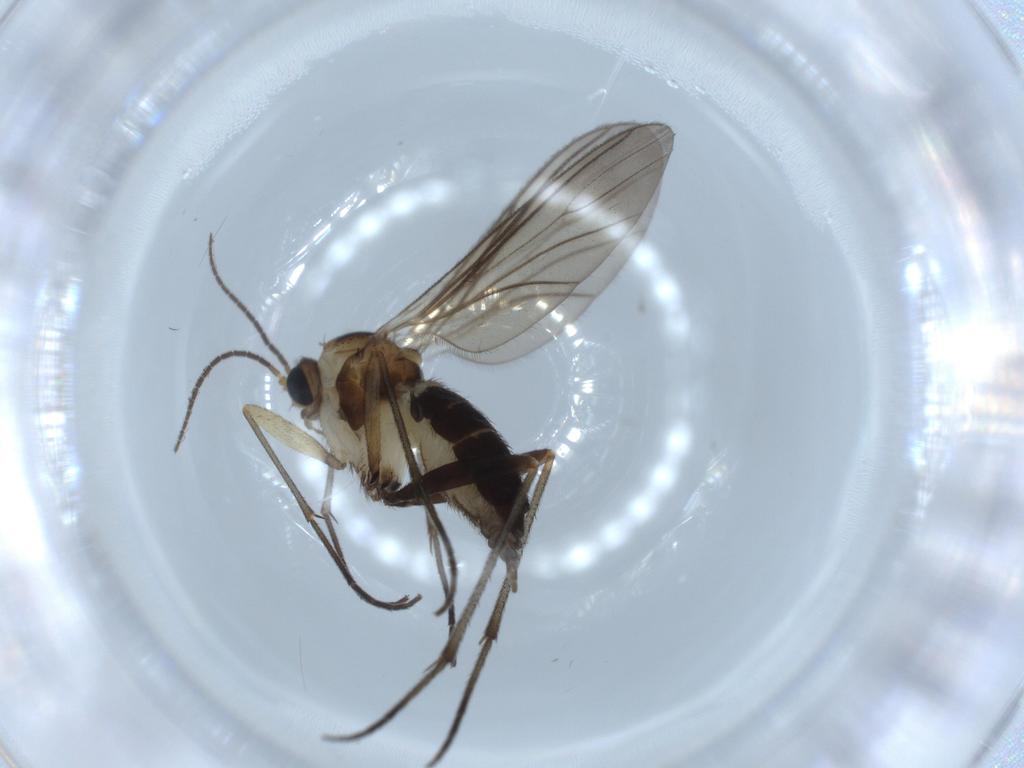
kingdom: Animalia
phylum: Arthropoda
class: Insecta
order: Diptera
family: Sciaridae
